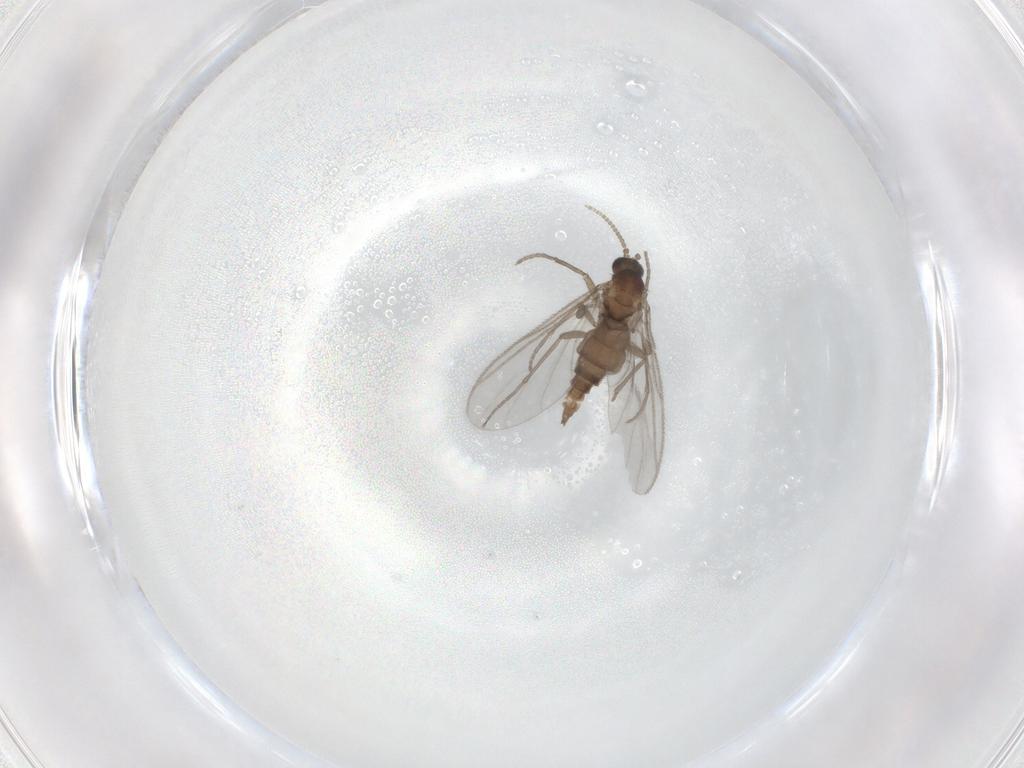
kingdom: Animalia
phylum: Arthropoda
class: Insecta
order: Diptera
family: Sciaridae
